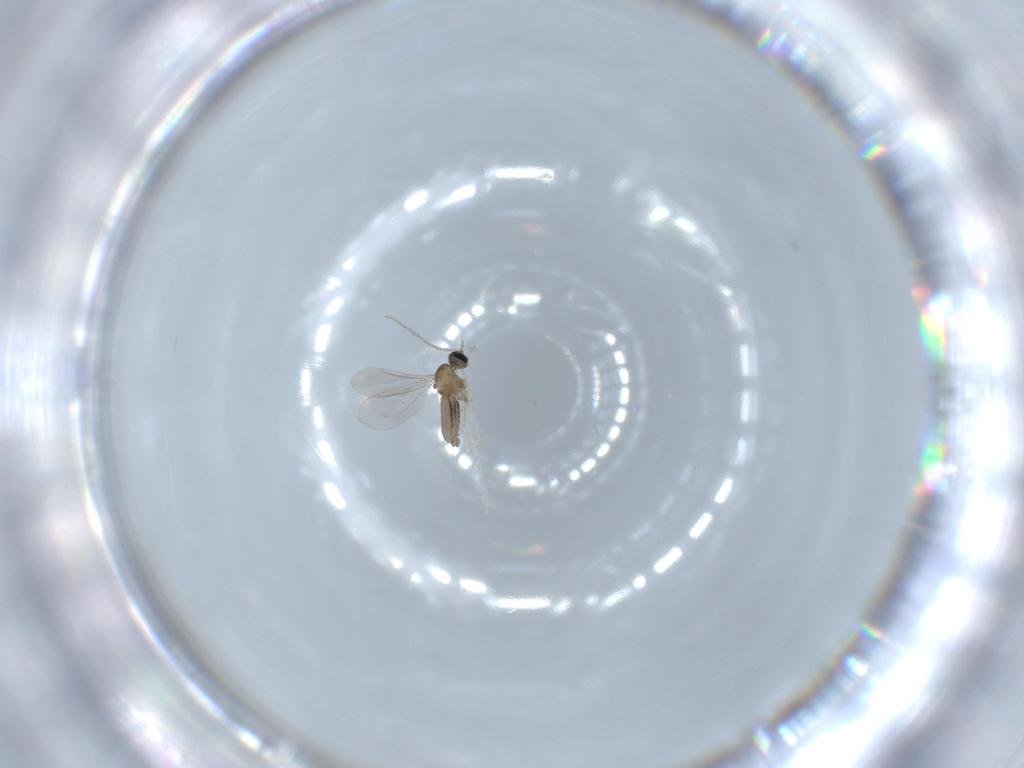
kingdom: Animalia
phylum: Arthropoda
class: Insecta
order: Diptera
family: Cecidomyiidae
